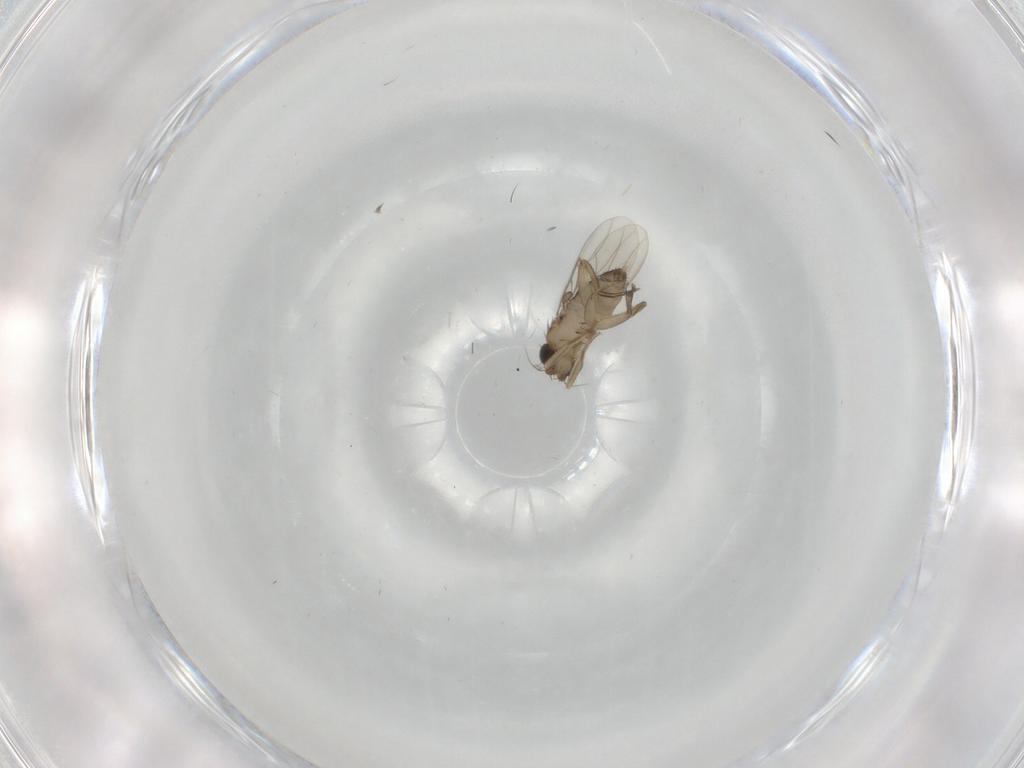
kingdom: Animalia
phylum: Arthropoda
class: Insecta
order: Diptera
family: Phoridae
